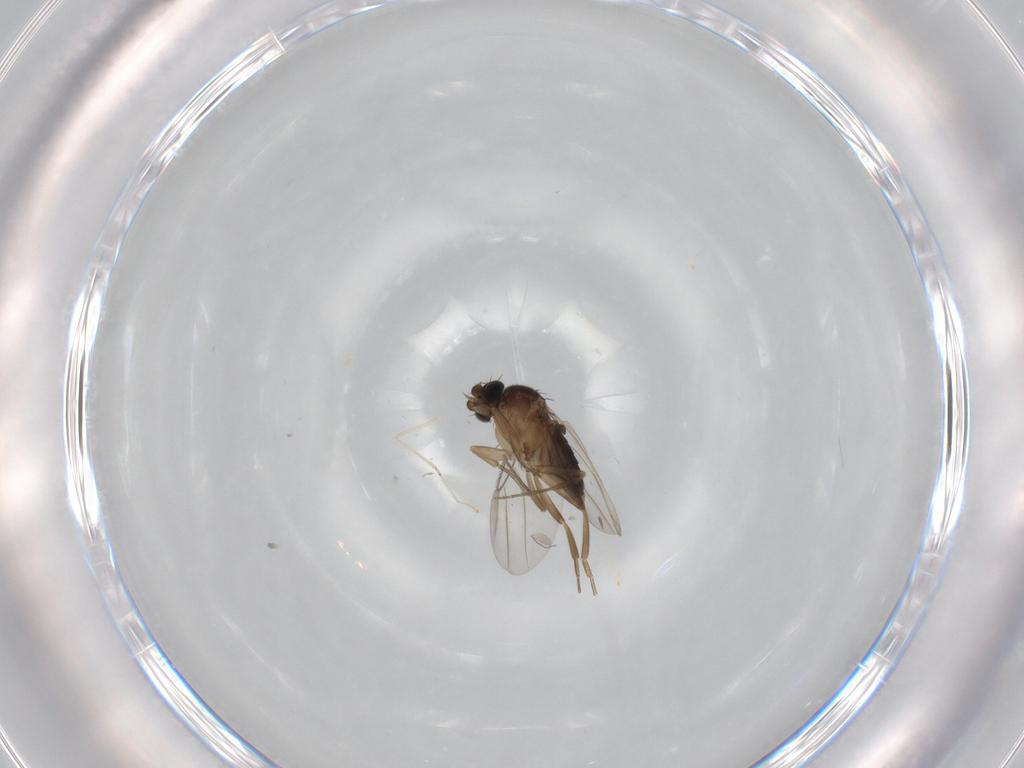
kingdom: Animalia
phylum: Arthropoda
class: Insecta
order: Diptera
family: Phoridae
